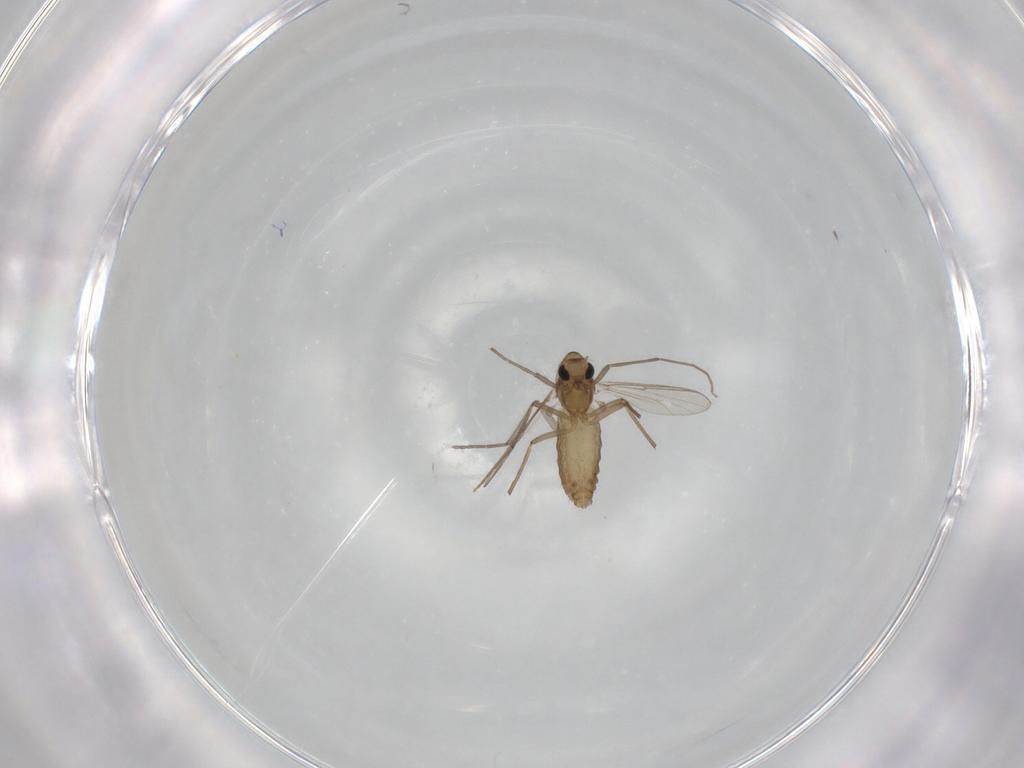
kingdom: Animalia
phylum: Arthropoda
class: Insecta
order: Diptera
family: Chironomidae
